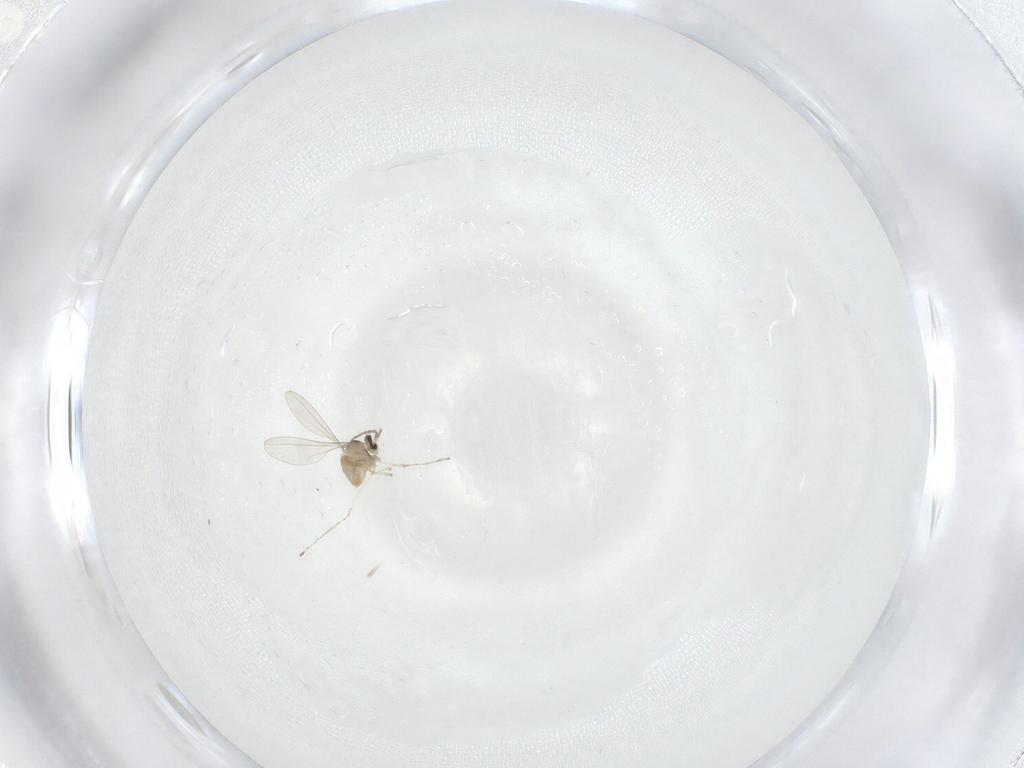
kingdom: Animalia
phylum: Arthropoda
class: Insecta
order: Diptera
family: Cecidomyiidae
